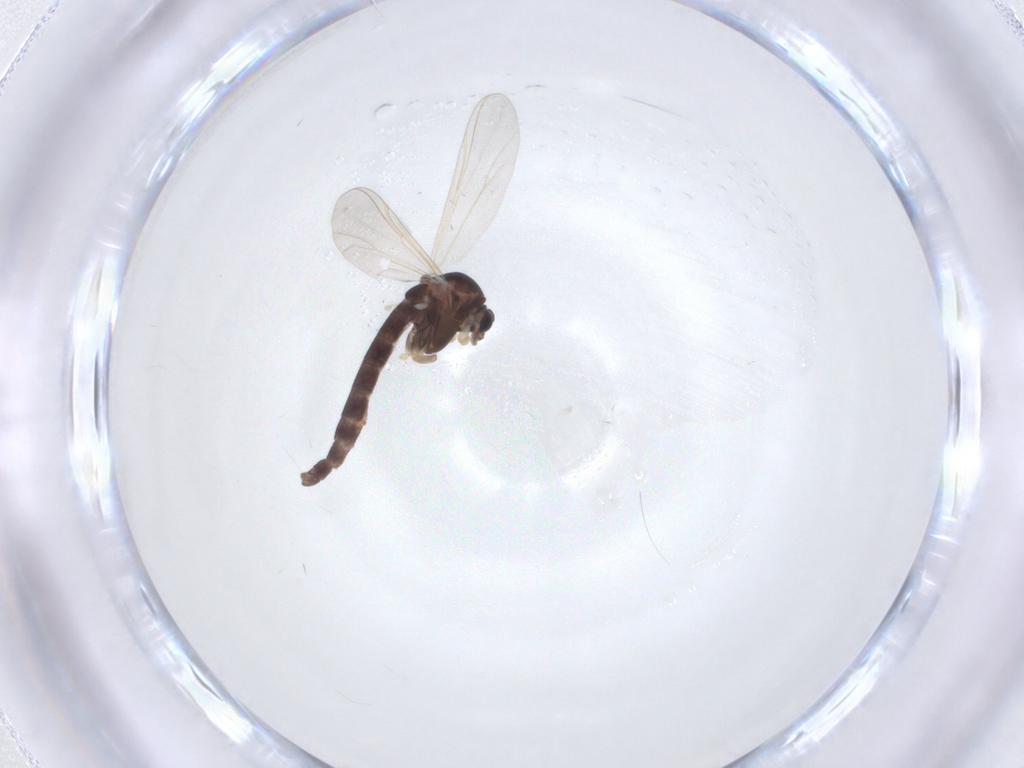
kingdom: Animalia
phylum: Arthropoda
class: Insecta
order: Diptera
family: Chironomidae
